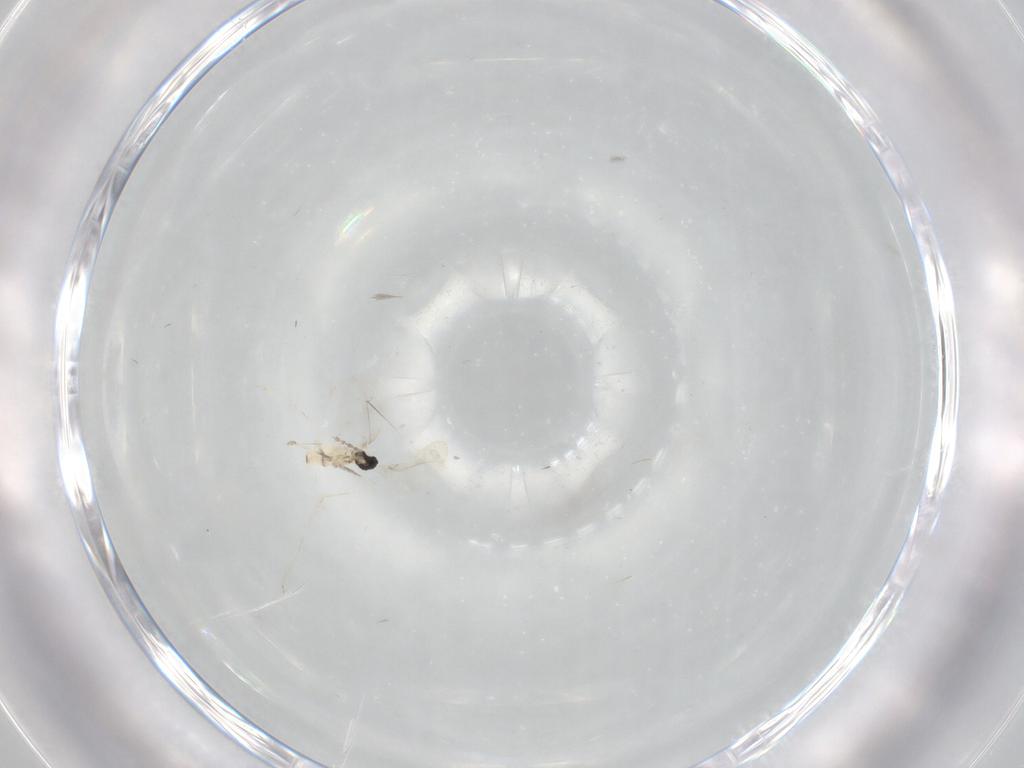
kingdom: Animalia
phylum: Arthropoda
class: Insecta
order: Diptera
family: Cecidomyiidae
